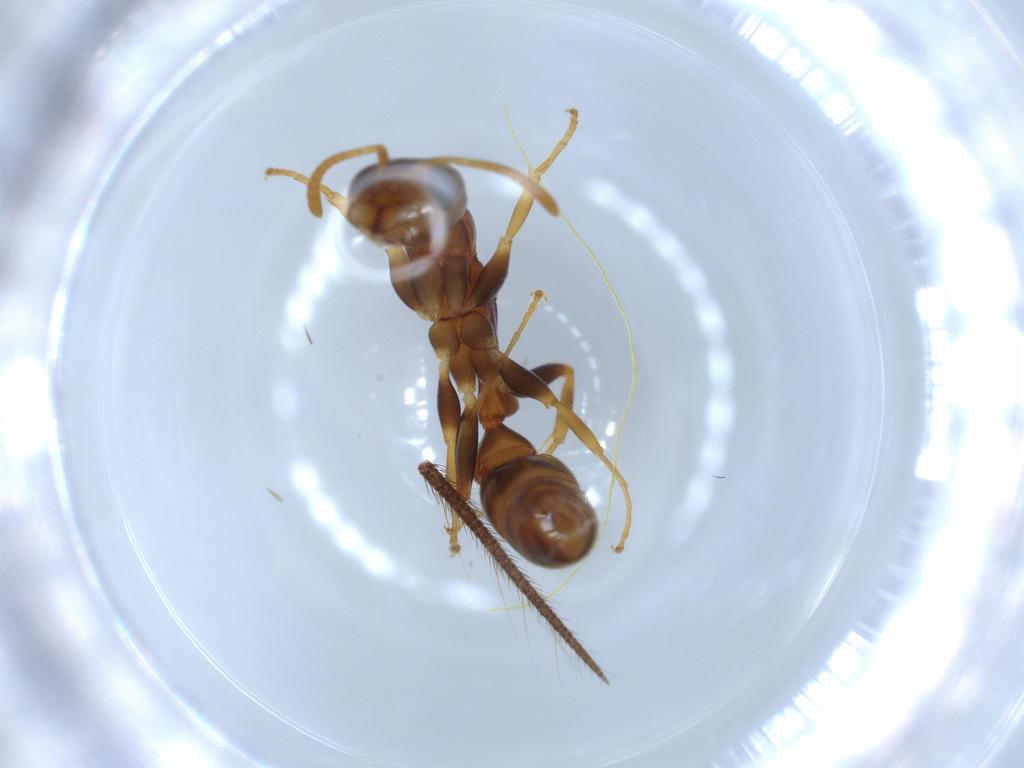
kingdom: Animalia
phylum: Arthropoda
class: Insecta
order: Hymenoptera
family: Formicidae
